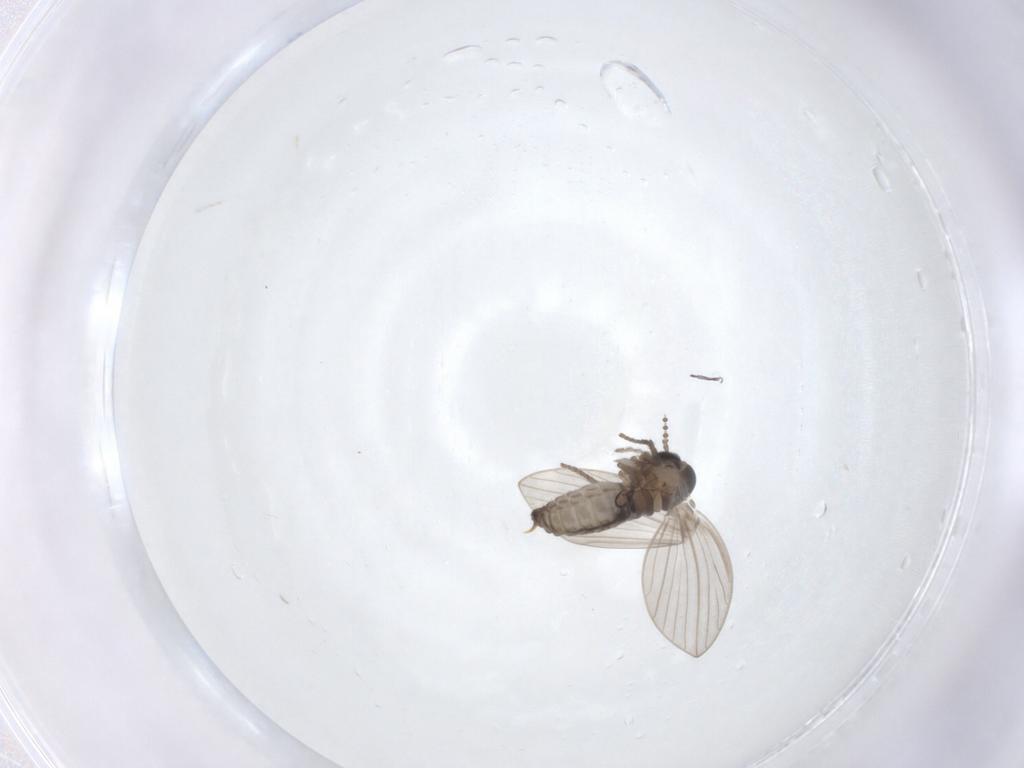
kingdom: Animalia
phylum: Arthropoda
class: Insecta
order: Diptera
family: Psychodidae
